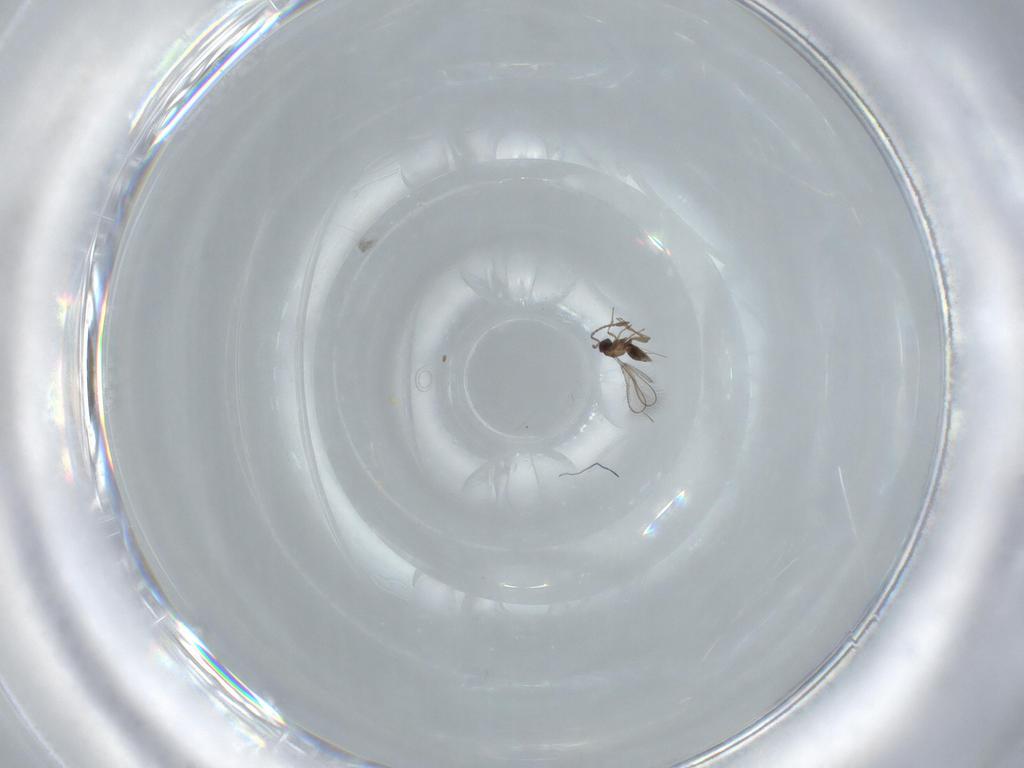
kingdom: Animalia
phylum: Arthropoda
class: Insecta
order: Hymenoptera
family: Mymaridae
